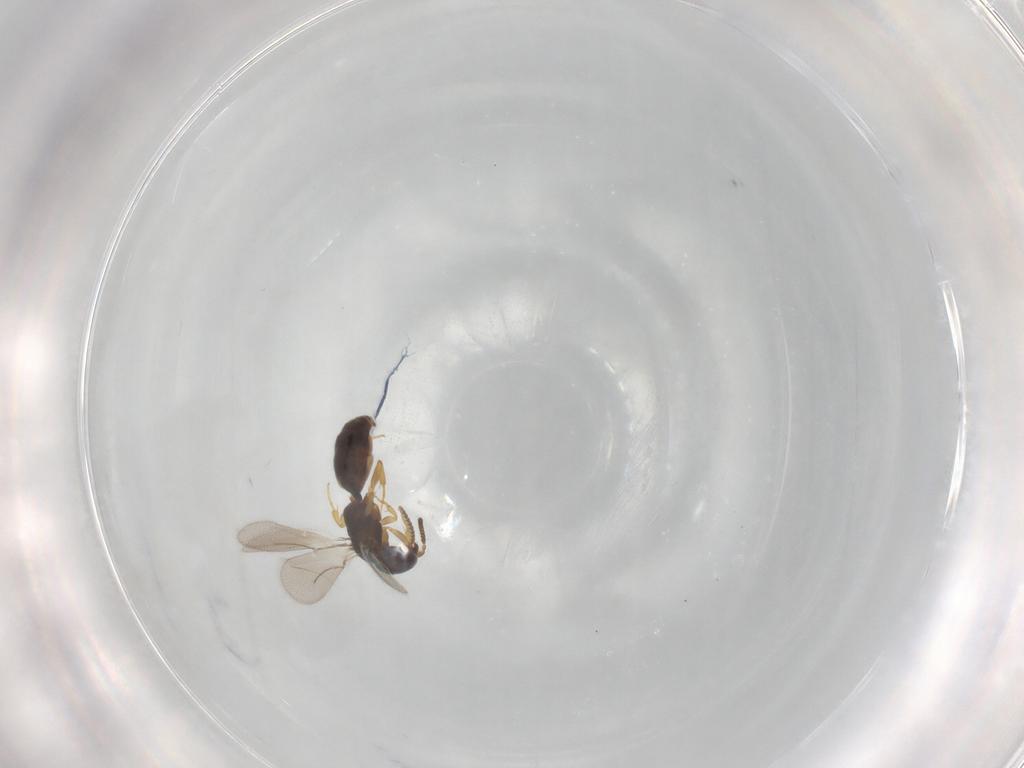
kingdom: Animalia
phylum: Arthropoda
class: Insecta
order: Hymenoptera
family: Bethylidae
